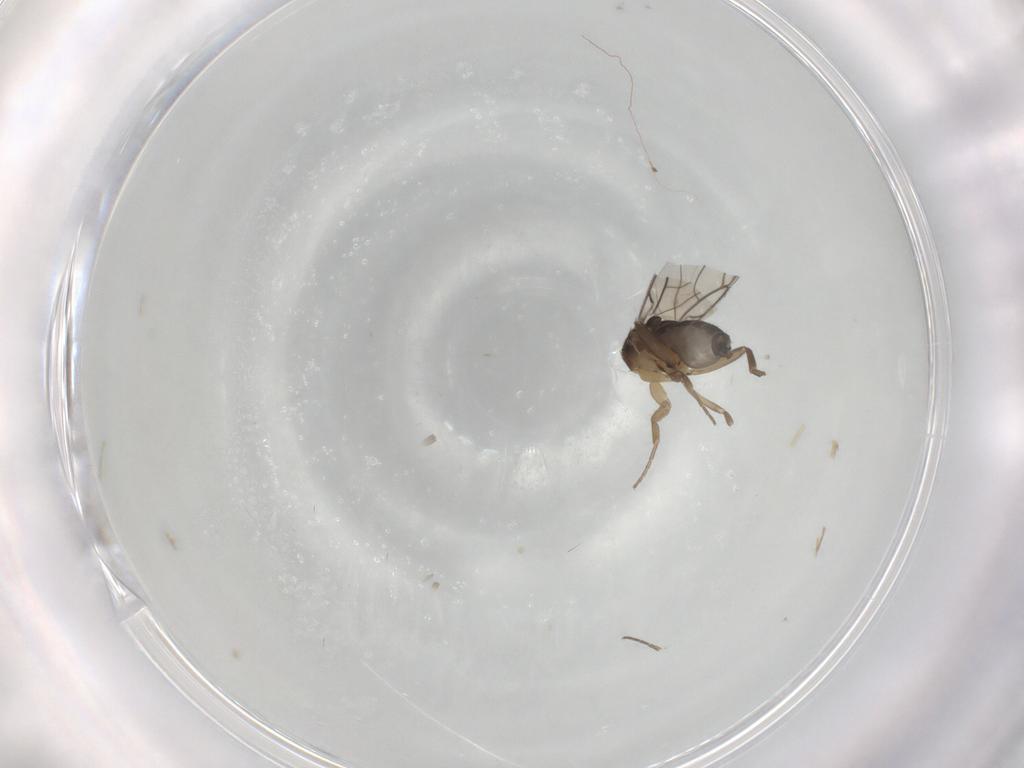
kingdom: Animalia
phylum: Arthropoda
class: Insecta
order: Diptera
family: Phoridae
